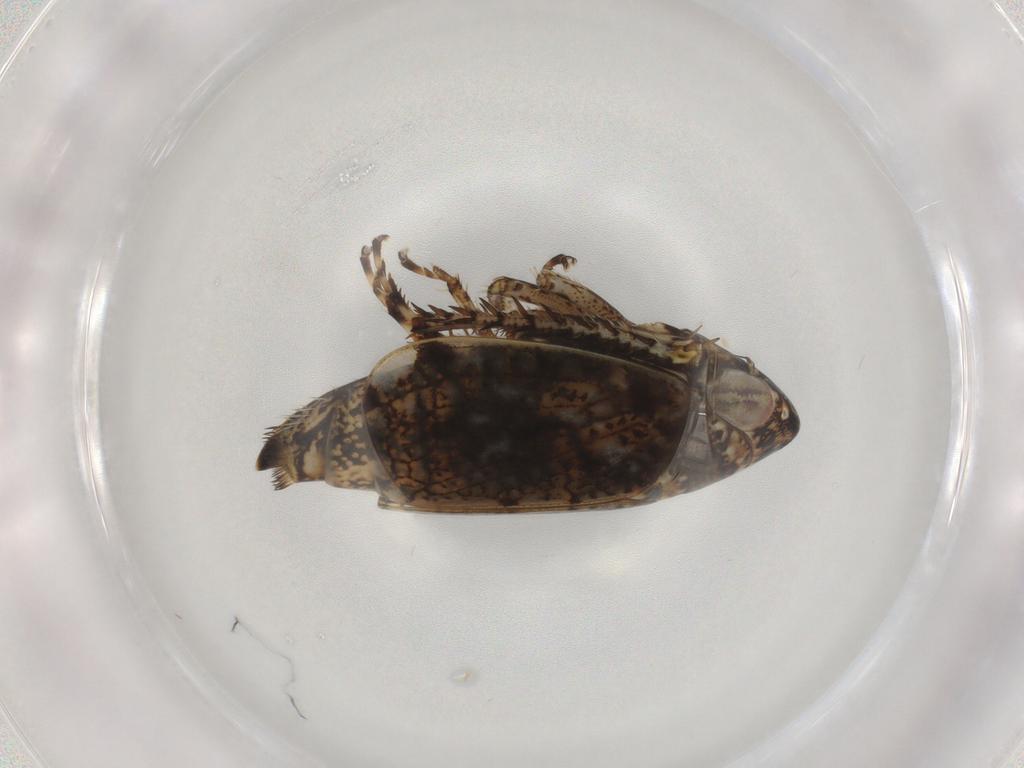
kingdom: Animalia
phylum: Arthropoda
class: Insecta
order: Hemiptera
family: Cicadellidae
